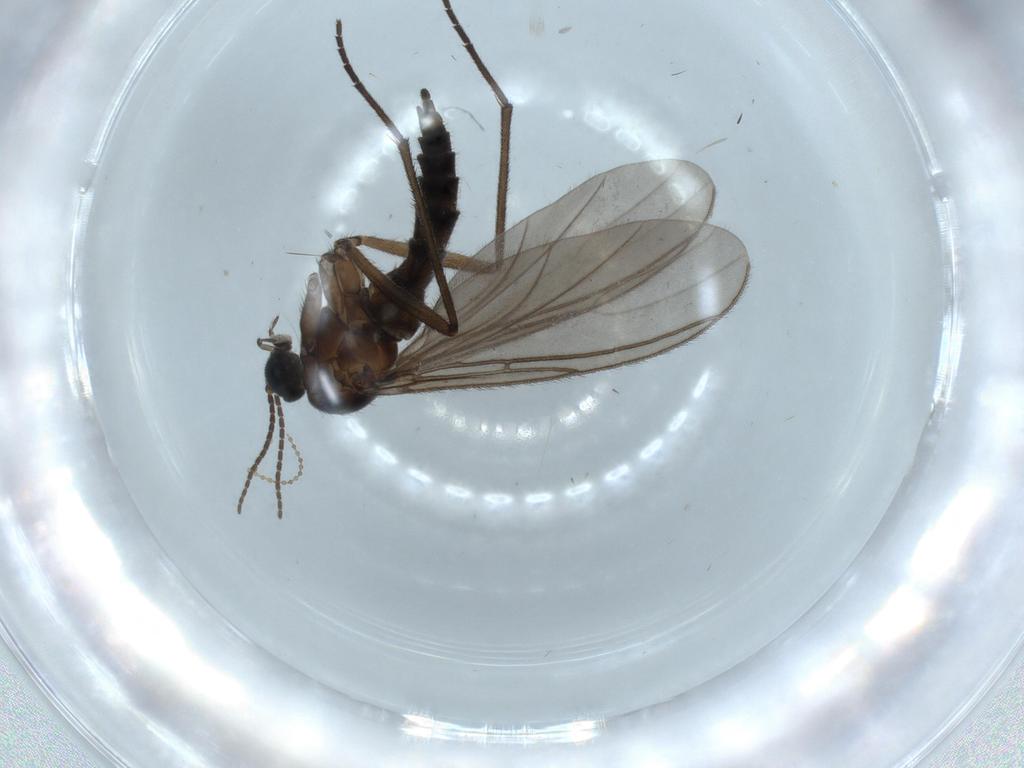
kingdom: Animalia
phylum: Arthropoda
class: Insecta
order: Diptera
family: Sciaridae
